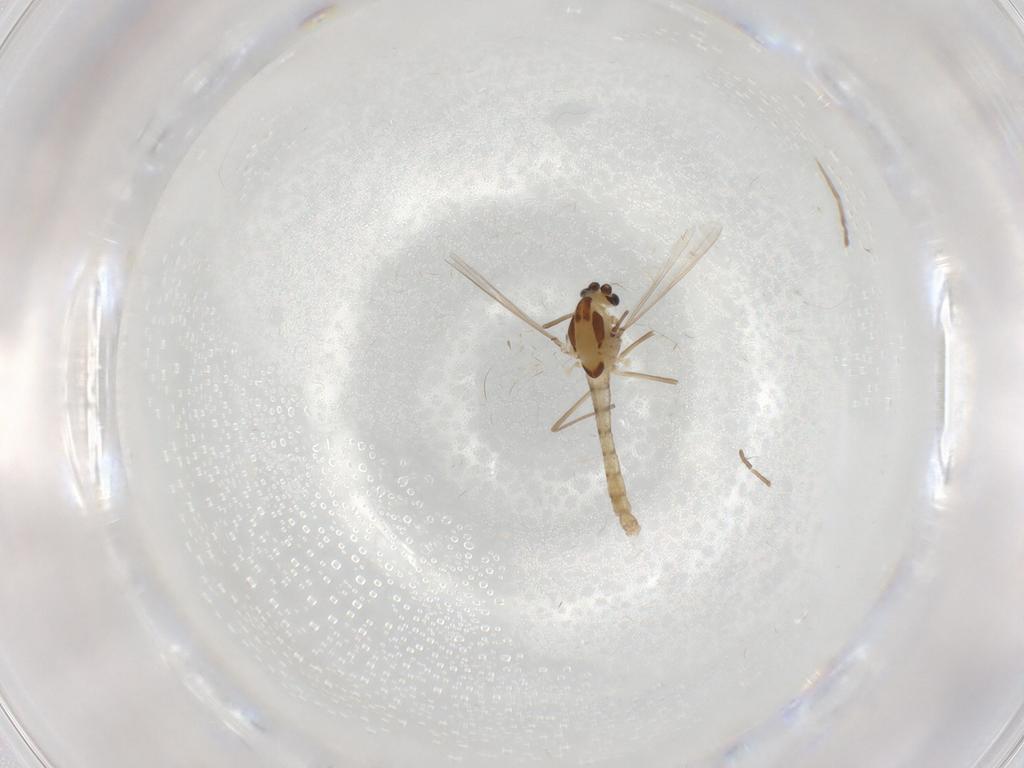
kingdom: Animalia
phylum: Arthropoda
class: Insecta
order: Diptera
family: Chironomidae
